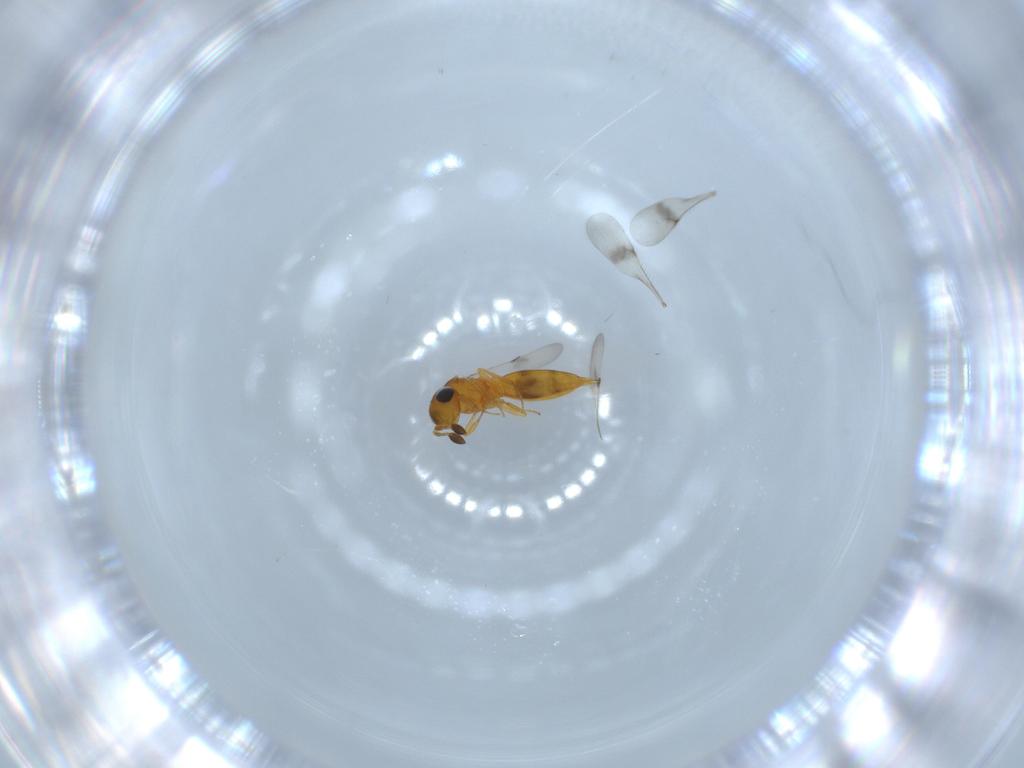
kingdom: Animalia
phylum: Arthropoda
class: Insecta
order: Hymenoptera
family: Scelionidae
